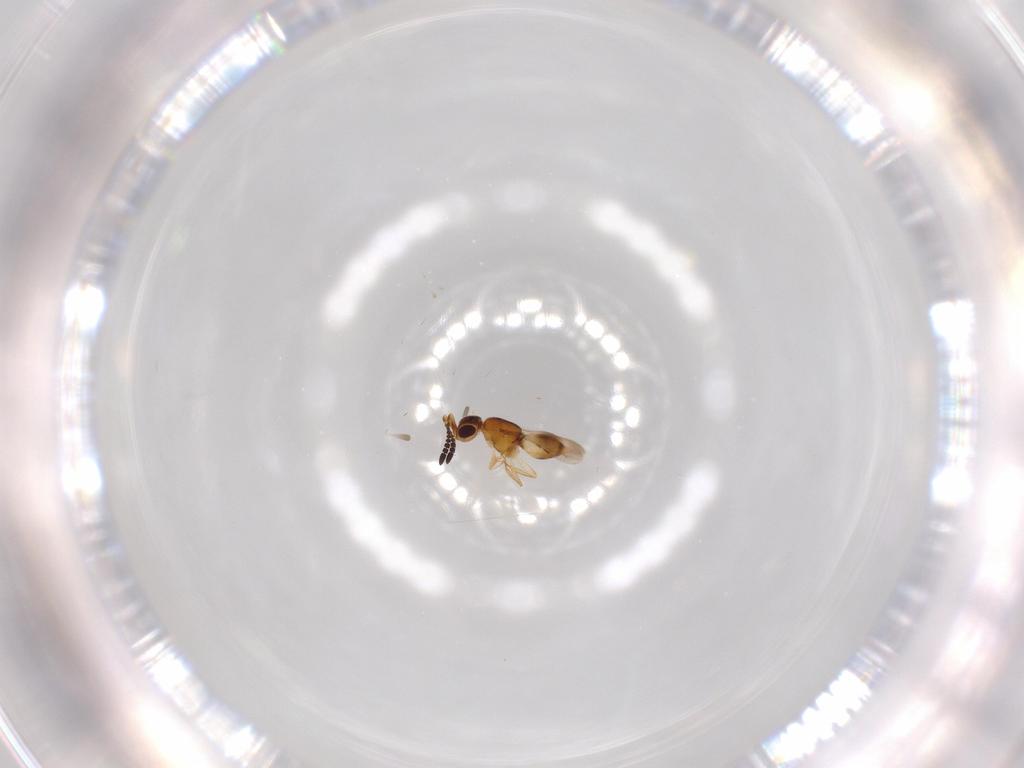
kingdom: Animalia
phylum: Arthropoda
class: Insecta
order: Hymenoptera
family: Ceraphronidae
